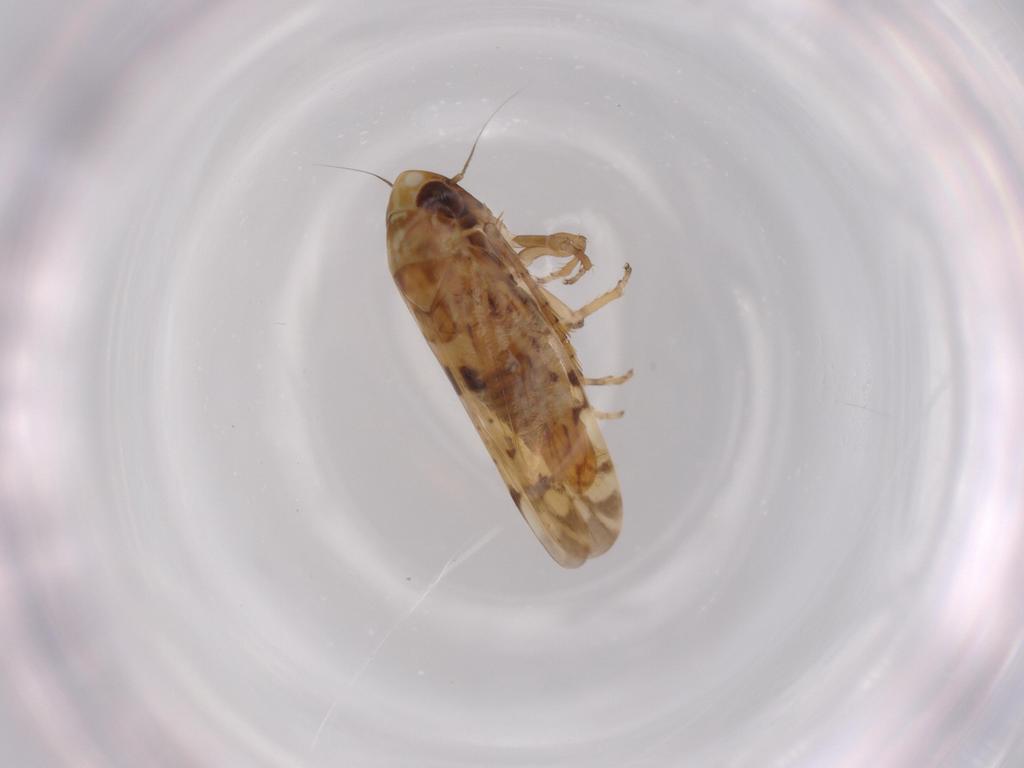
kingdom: Animalia
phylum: Arthropoda
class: Insecta
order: Hemiptera
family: Cicadellidae
